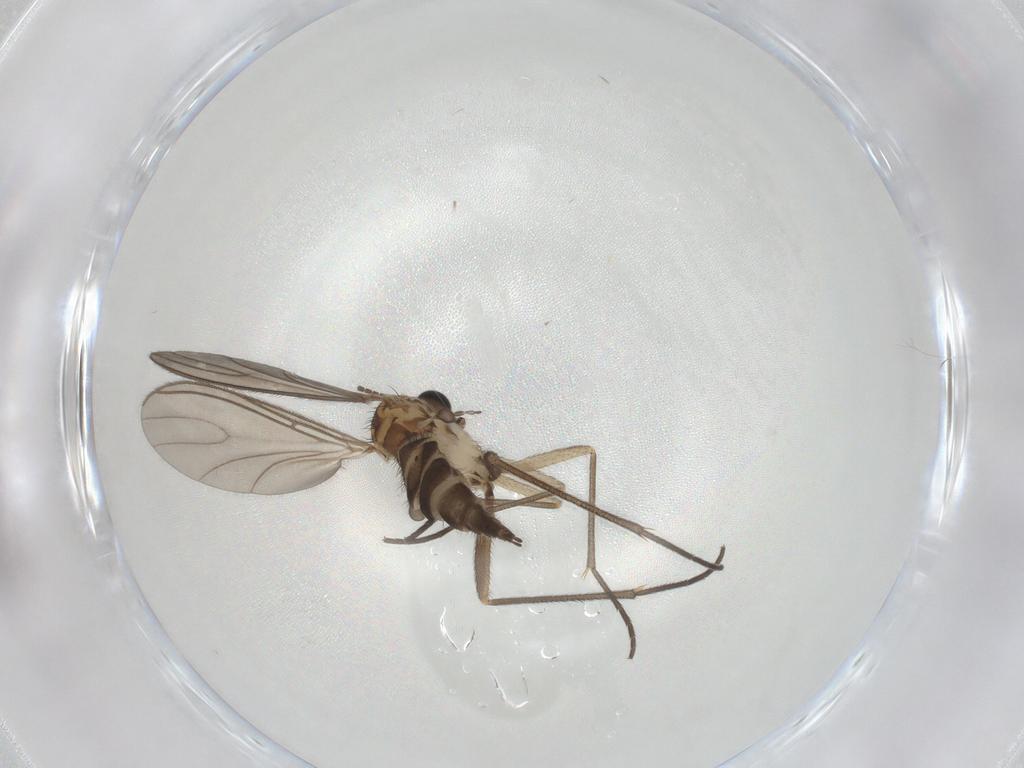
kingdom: Animalia
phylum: Arthropoda
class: Insecta
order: Diptera
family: Sciaridae
